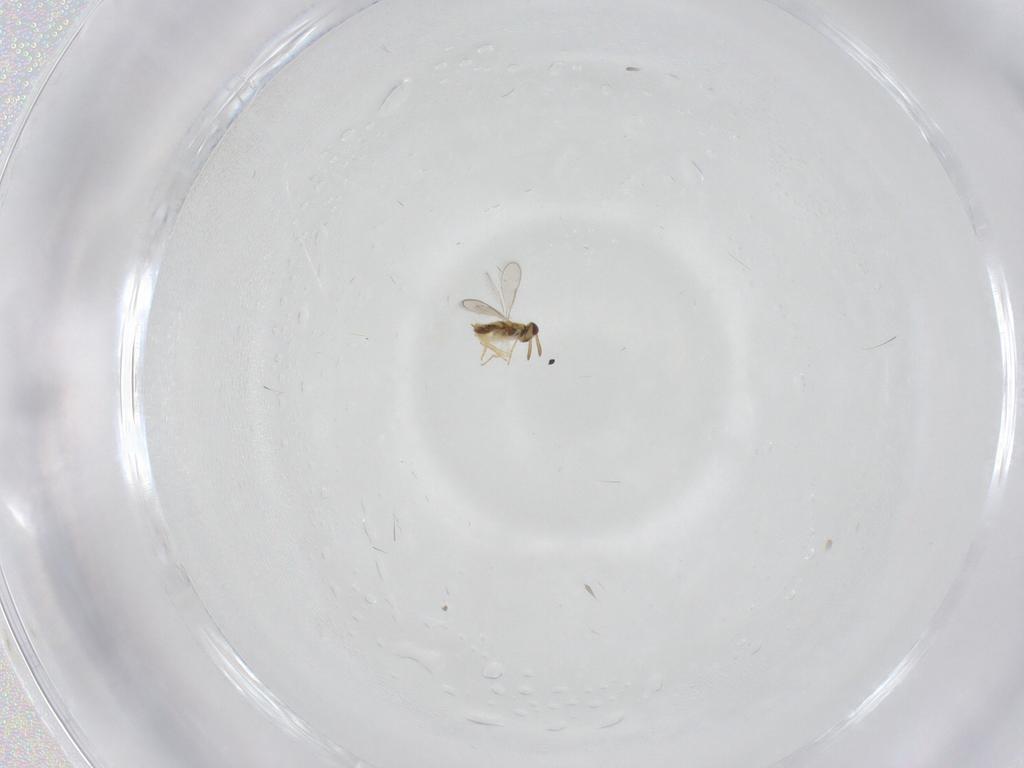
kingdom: Animalia
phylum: Arthropoda
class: Insecta
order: Hymenoptera
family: Aphelinidae
